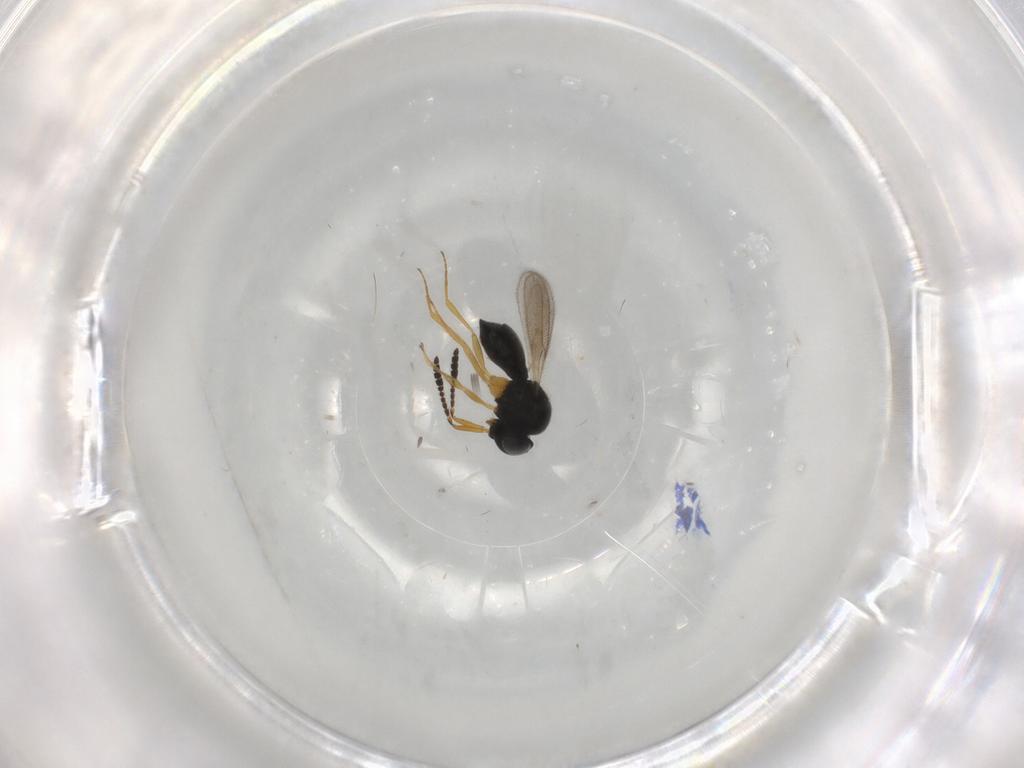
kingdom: Animalia
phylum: Arthropoda
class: Insecta
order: Hymenoptera
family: Scelionidae
